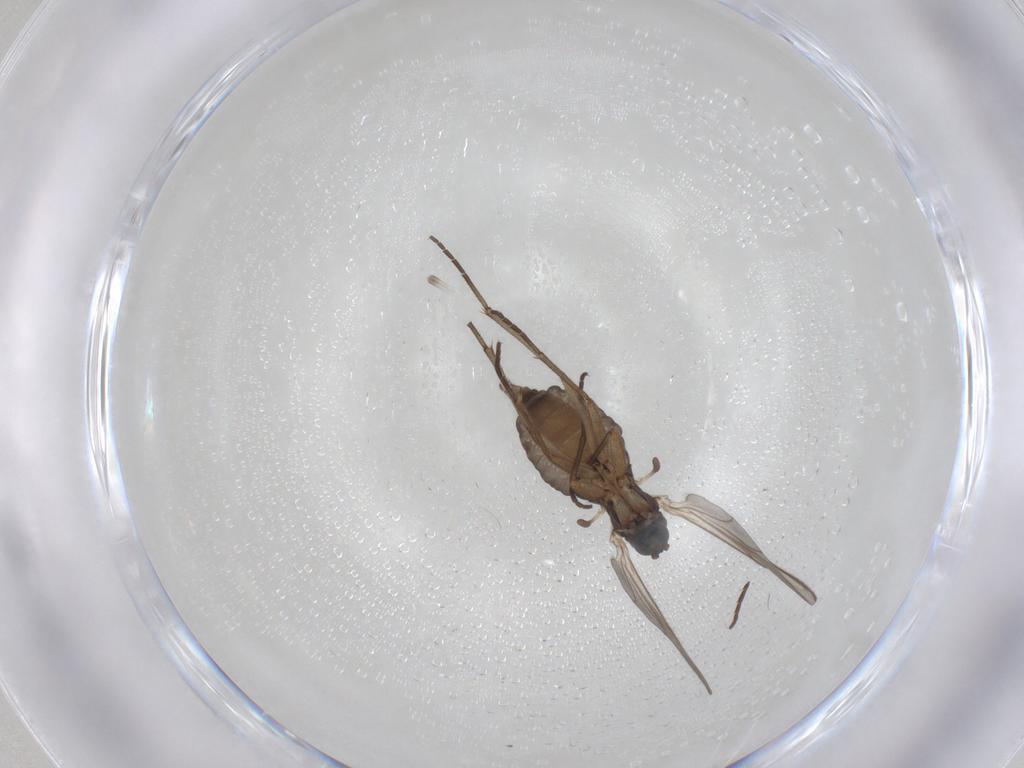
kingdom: Animalia
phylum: Arthropoda
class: Insecta
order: Diptera
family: Sciaridae
